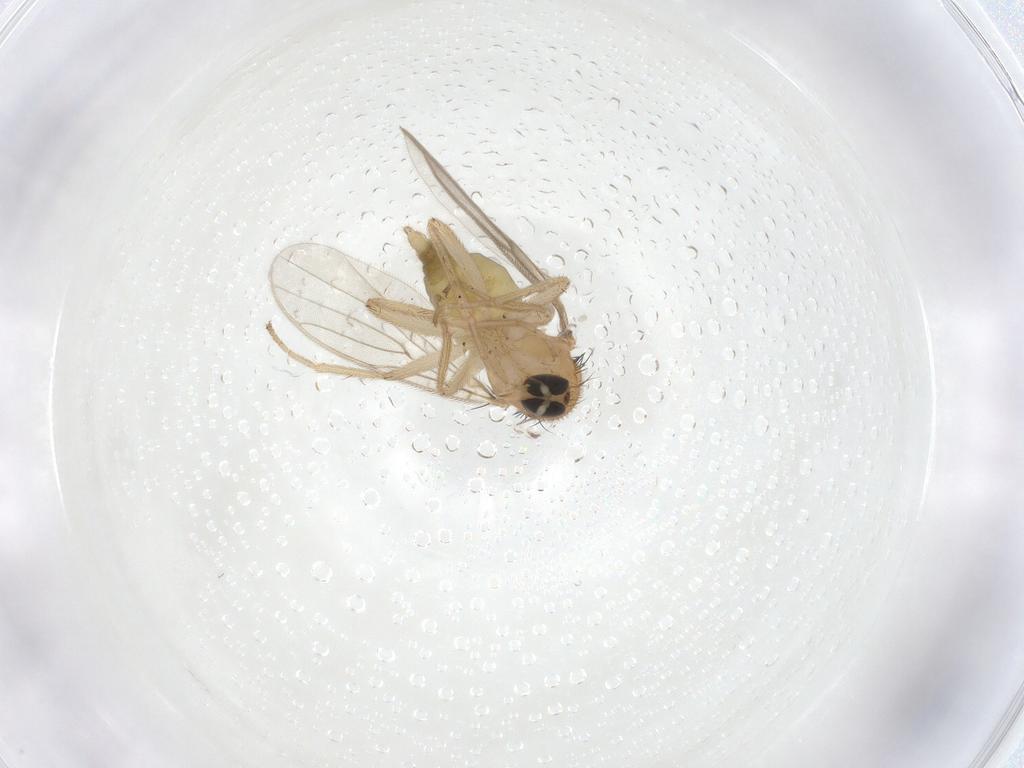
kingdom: Animalia
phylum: Arthropoda
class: Insecta
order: Diptera
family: Hybotidae
